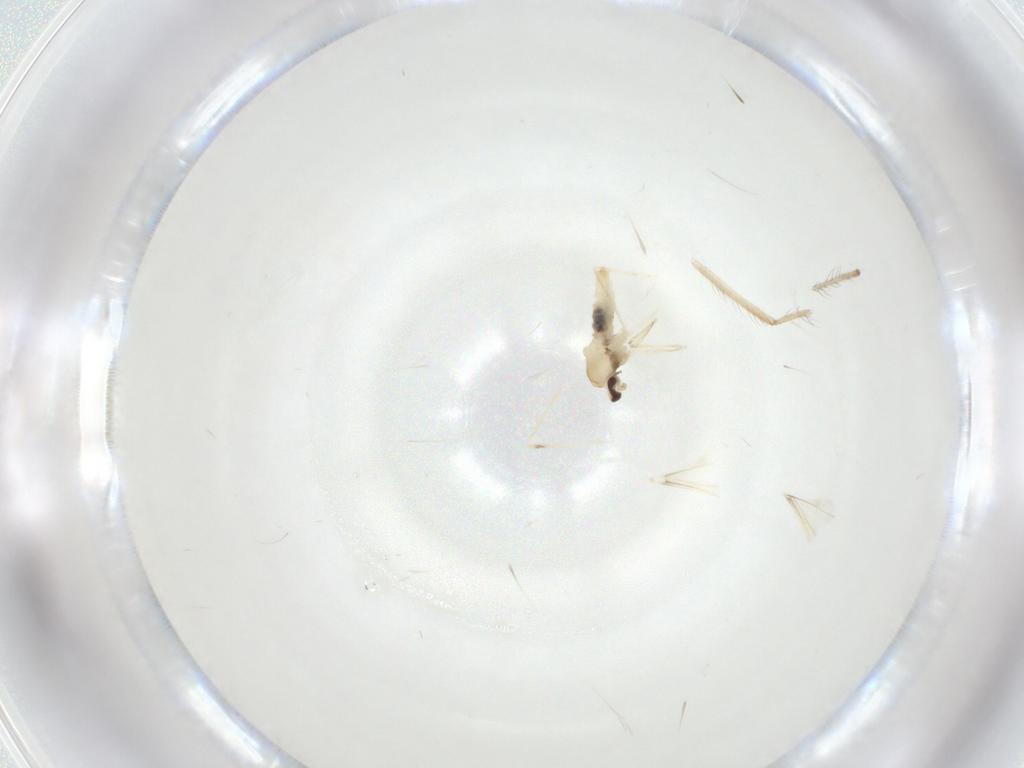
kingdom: Animalia
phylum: Arthropoda
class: Insecta
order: Diptera
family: Cecidomyiidae
